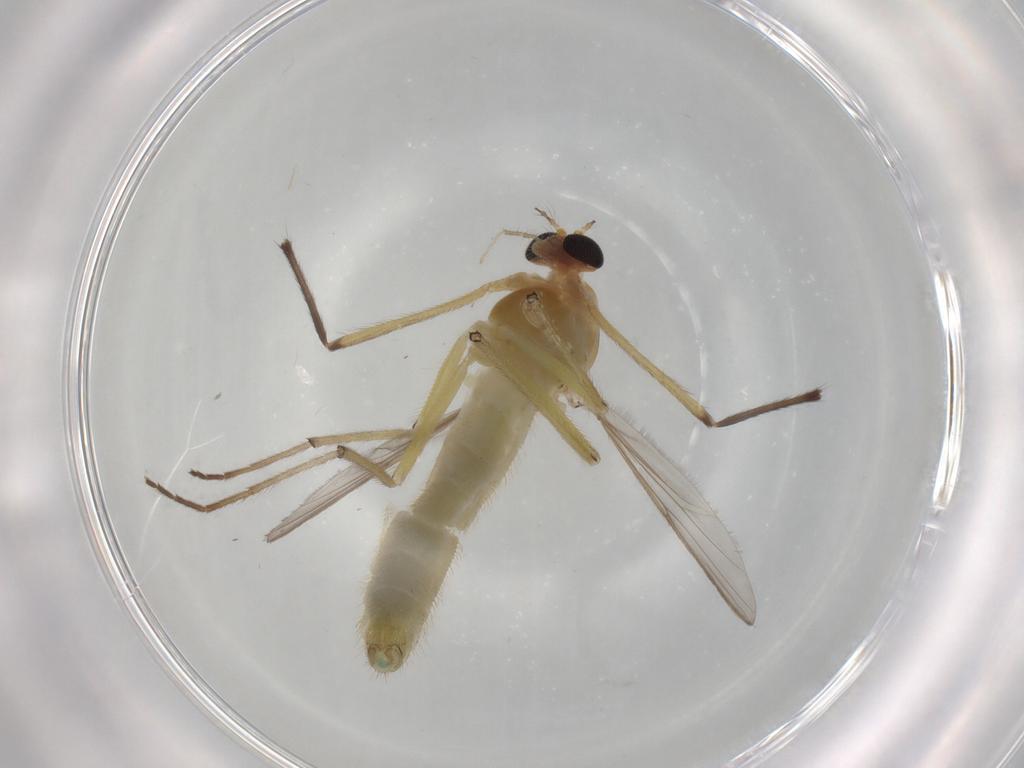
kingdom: Animalia
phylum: Arthropoda
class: Insecta
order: Diptera
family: Chironomidae
